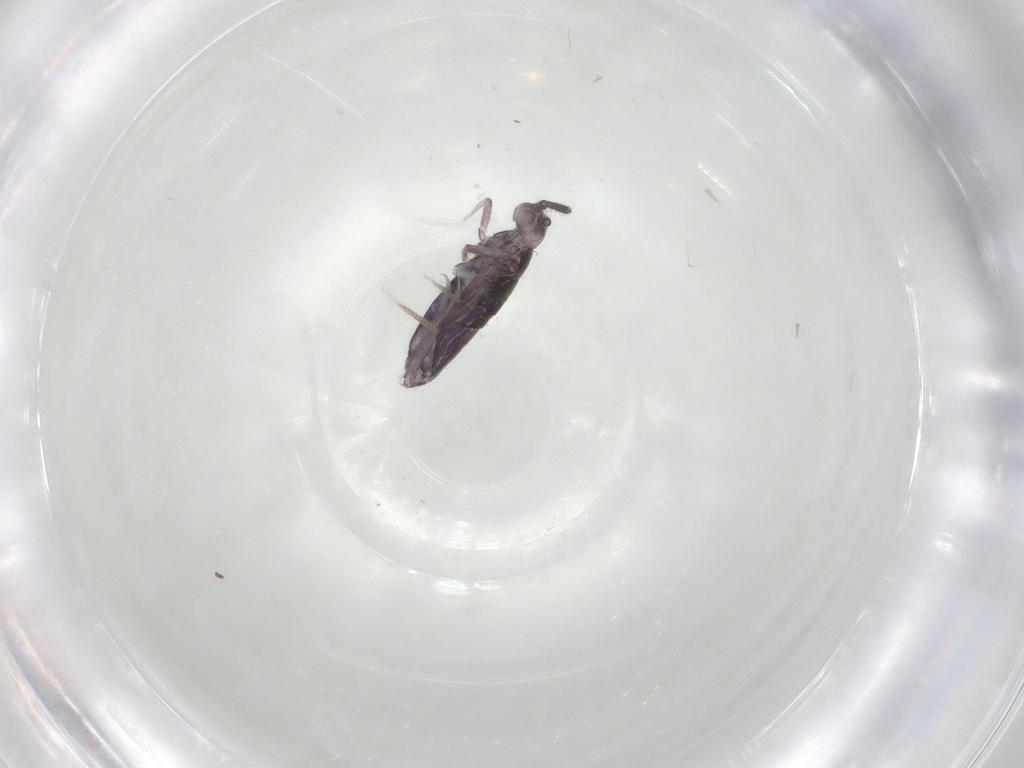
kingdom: Animalia
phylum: Arthropoda
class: Collembola
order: Entomobryomorpha
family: Entomobryidae
